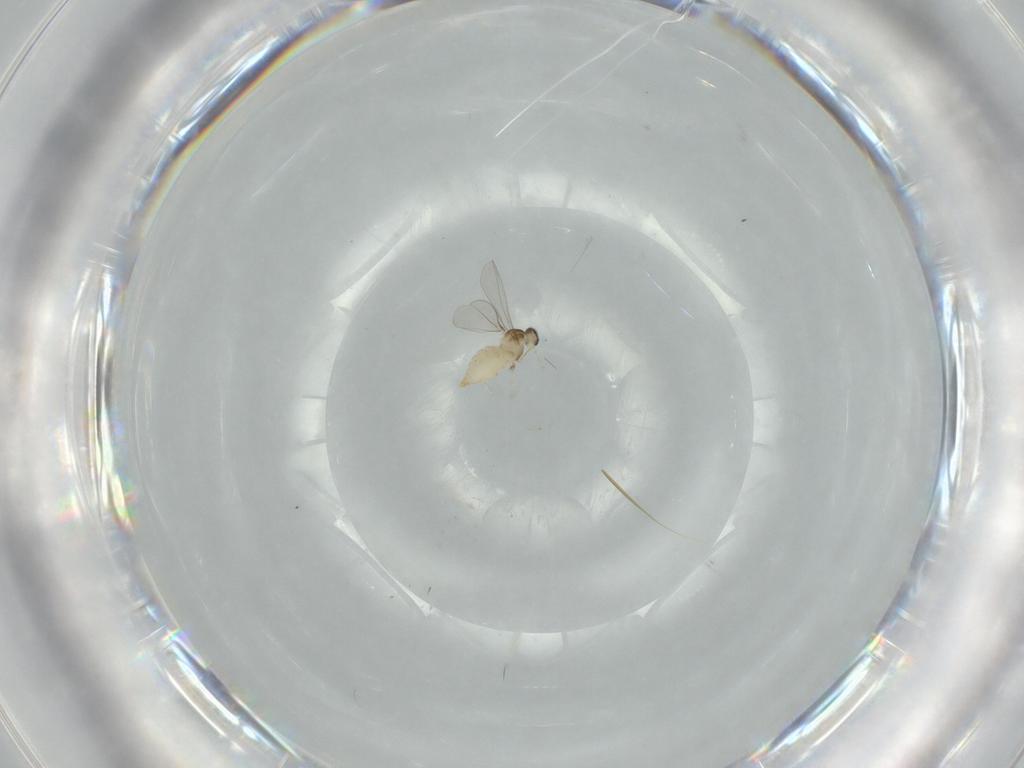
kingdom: Animalia
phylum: Arthropoda
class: Insecta
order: Diptera
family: Cecidomyiidae
